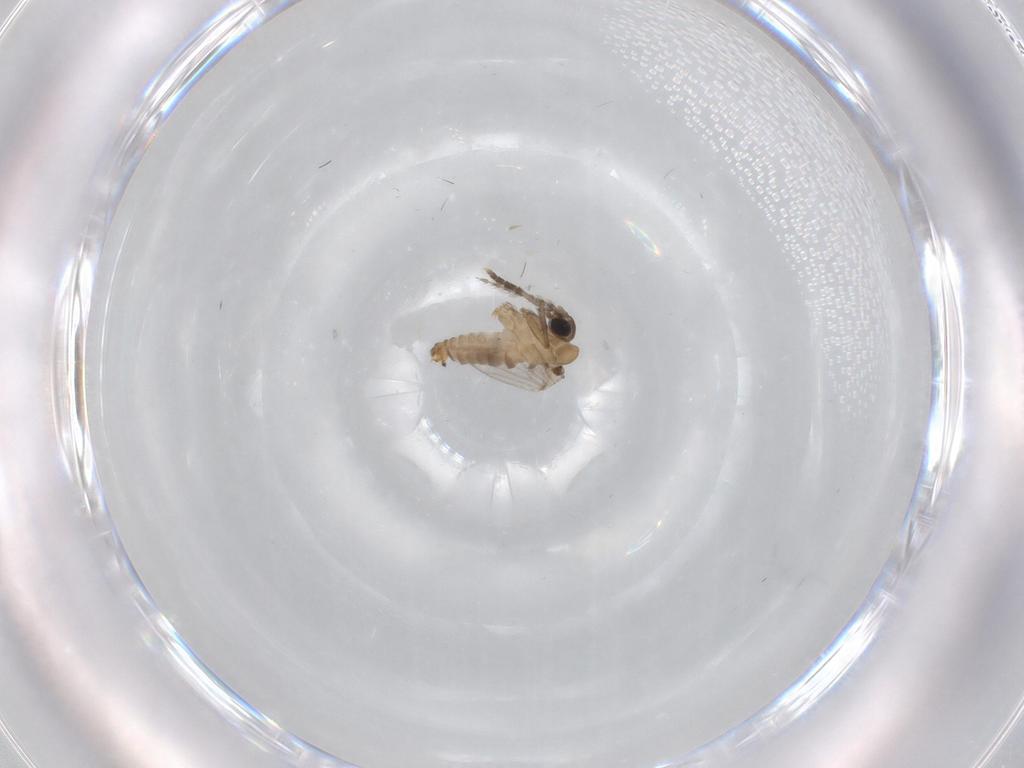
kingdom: Animalia
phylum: Arthropoda
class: Insecta
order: Diptera
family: Psychodidae
